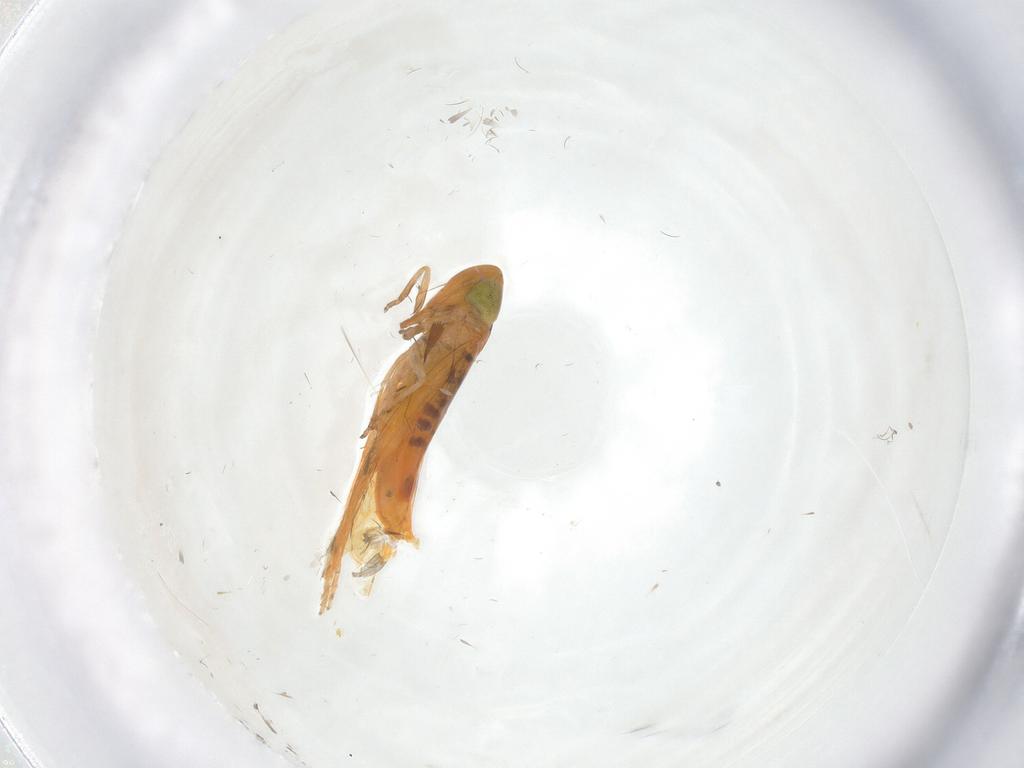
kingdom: Animalia
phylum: Arthropoda
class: Insecta
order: Hemiptera
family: Cicadellidae
